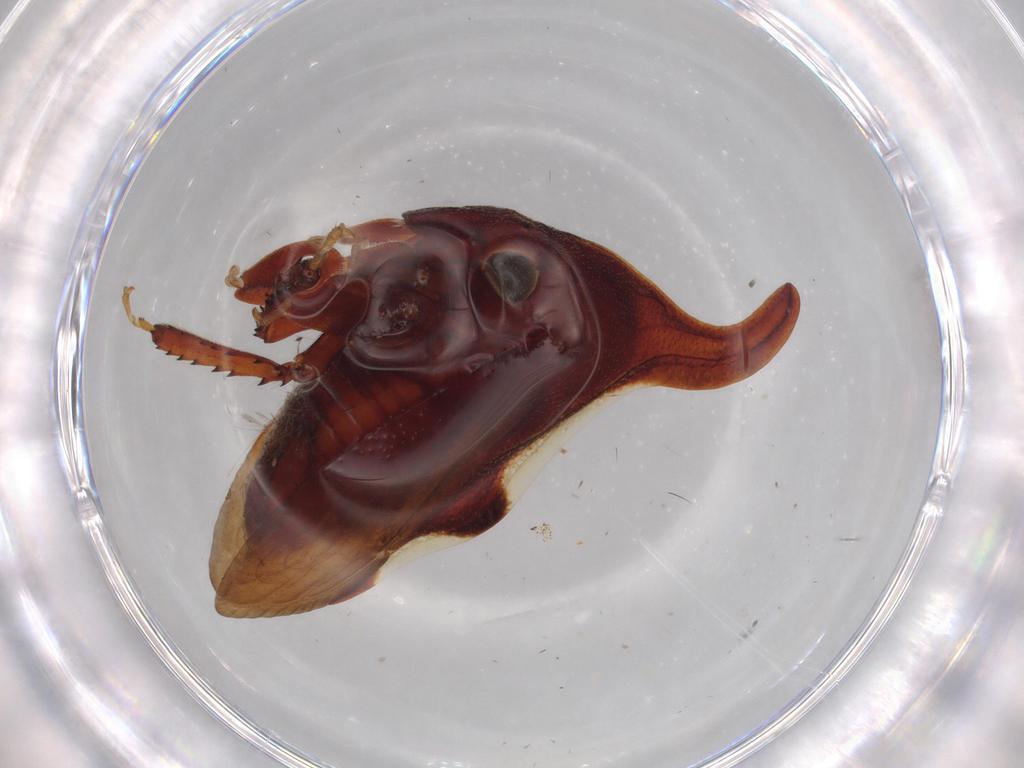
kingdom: Animalia
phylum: Arthropoda
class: Insecta
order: Hemiptera
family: Membracidae
